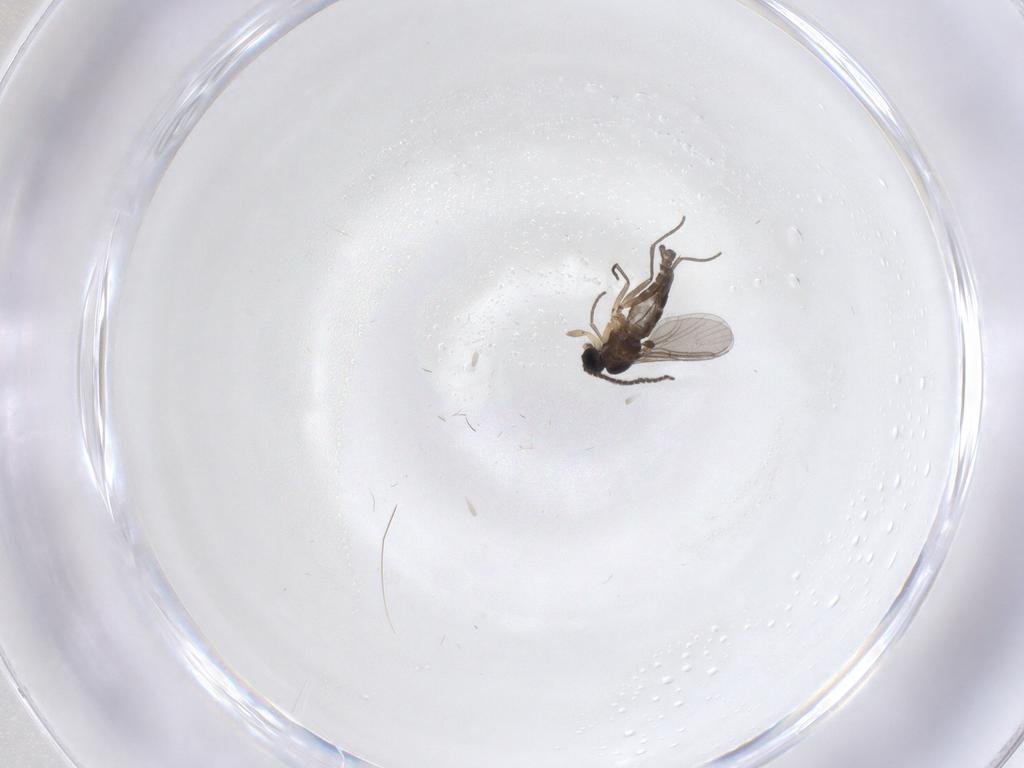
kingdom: Animalia
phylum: Arthropoda
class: Insecta
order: Diptera
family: Sciaridae
